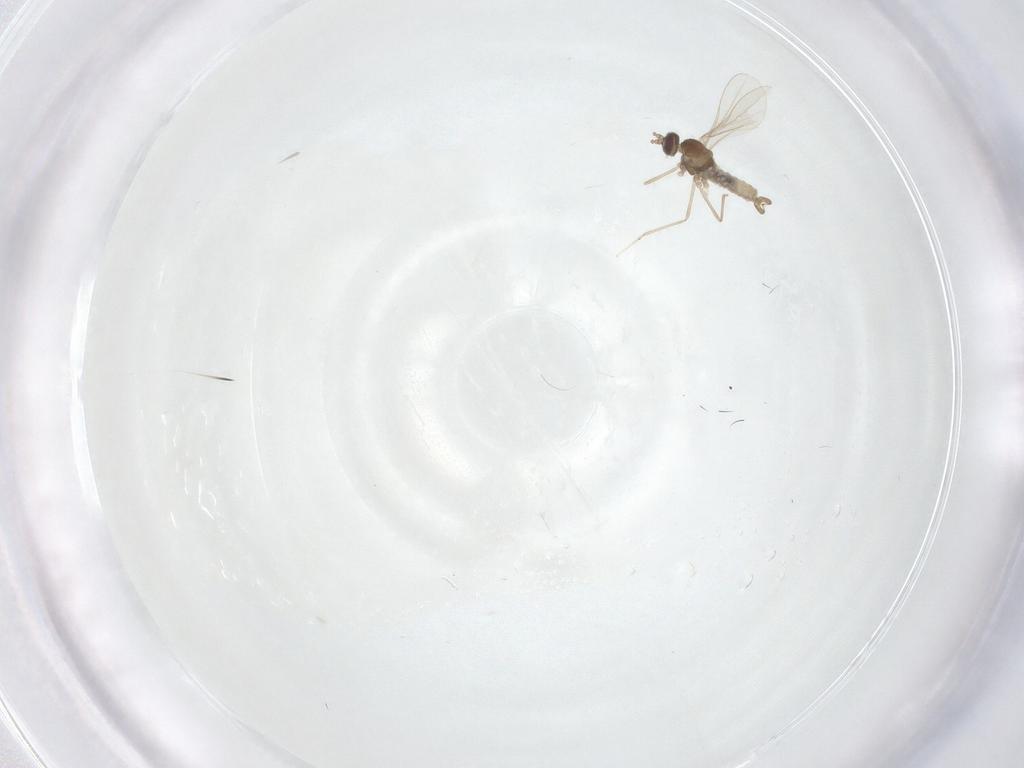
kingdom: Animalia
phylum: Arthropoda
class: Insecta
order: Diptera
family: Cecidomyiidae
